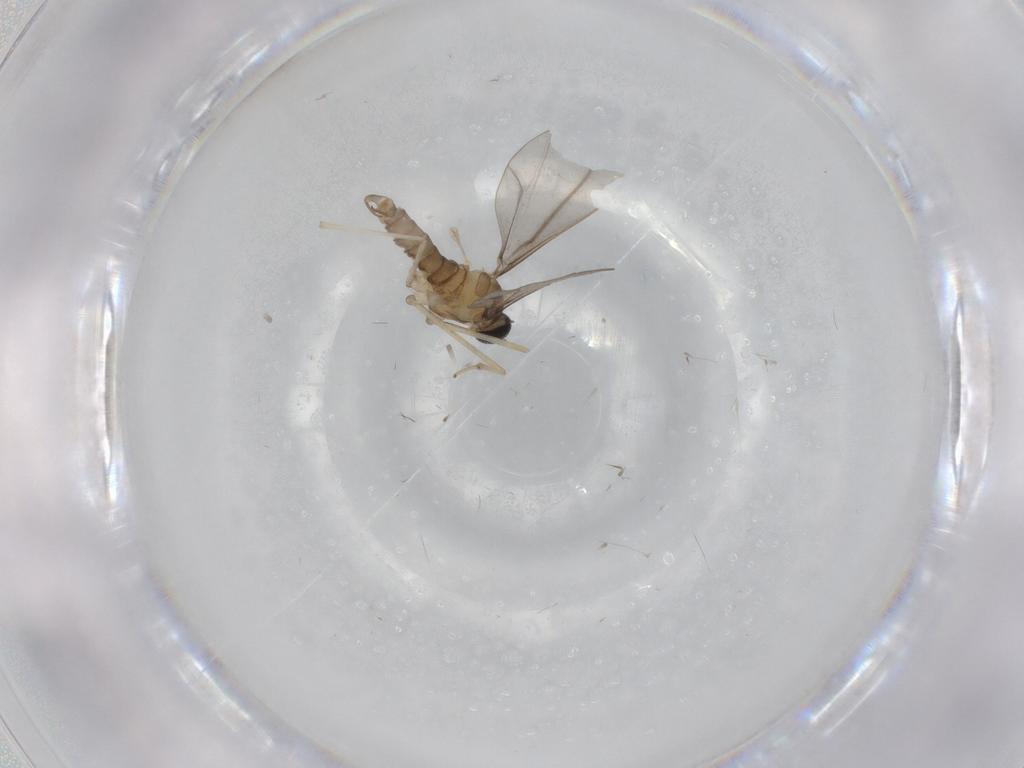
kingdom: Animalia
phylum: Arthropoda
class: Insecta
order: Diptera
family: Cecidomyiidae
